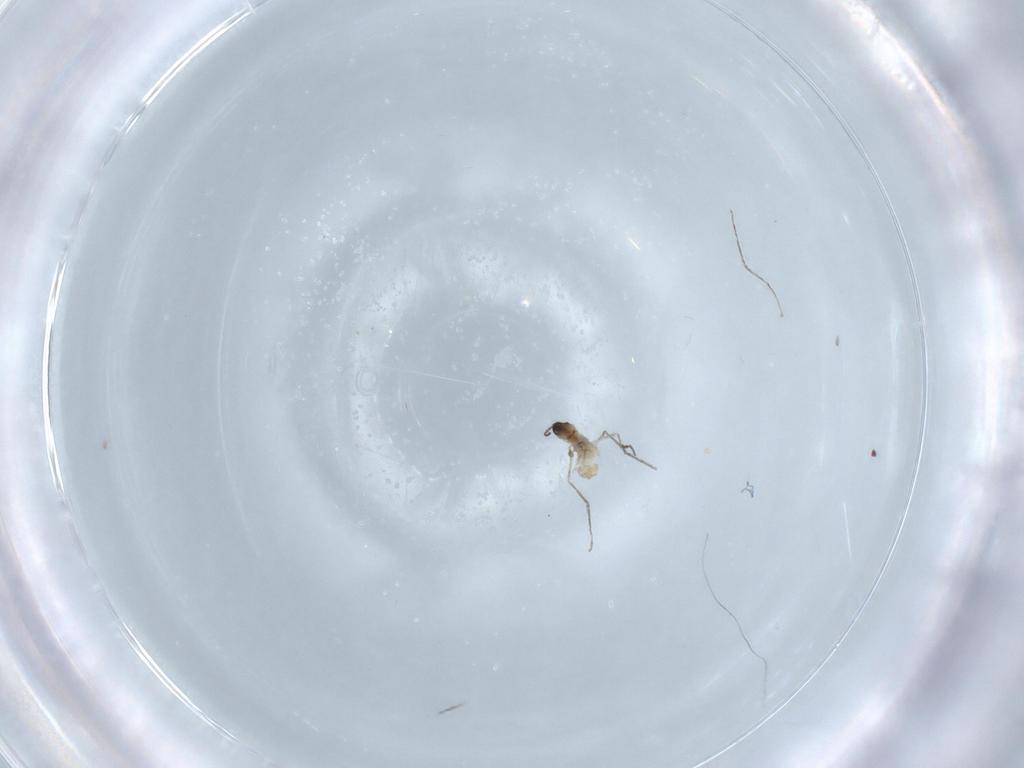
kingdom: Animalia
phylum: Arthropoda
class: Insecta
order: Diptera
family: Cecidomyiidae
